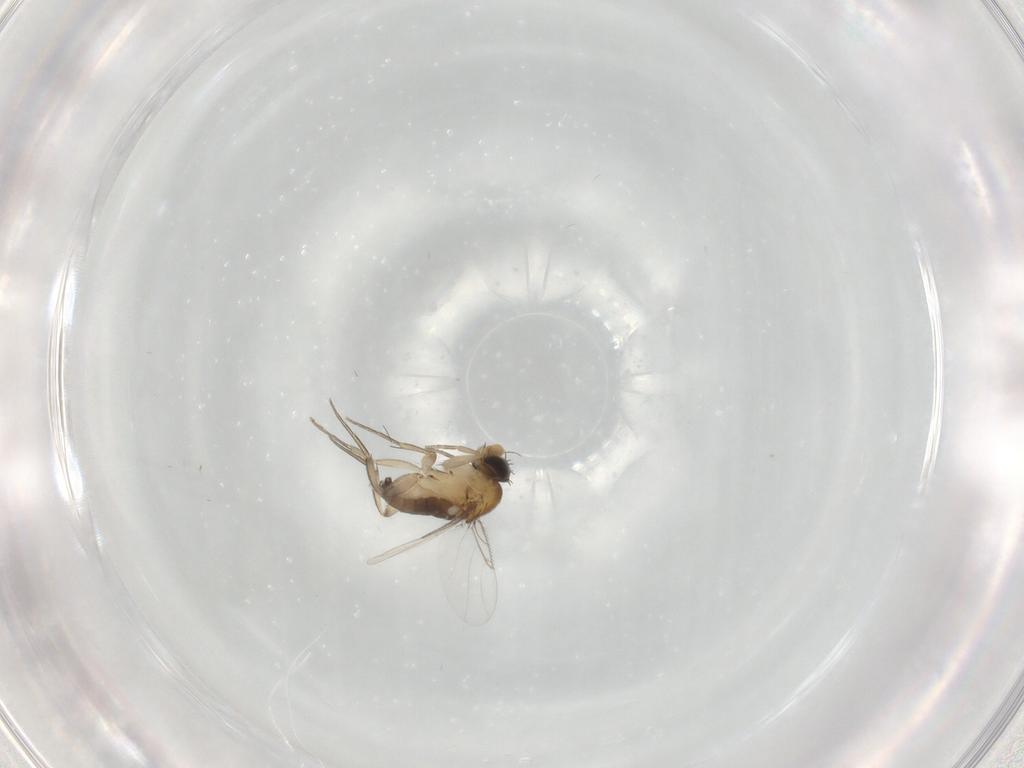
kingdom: Animalia
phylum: Arthropoda
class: Insecta
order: Diptera
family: Phoridae
